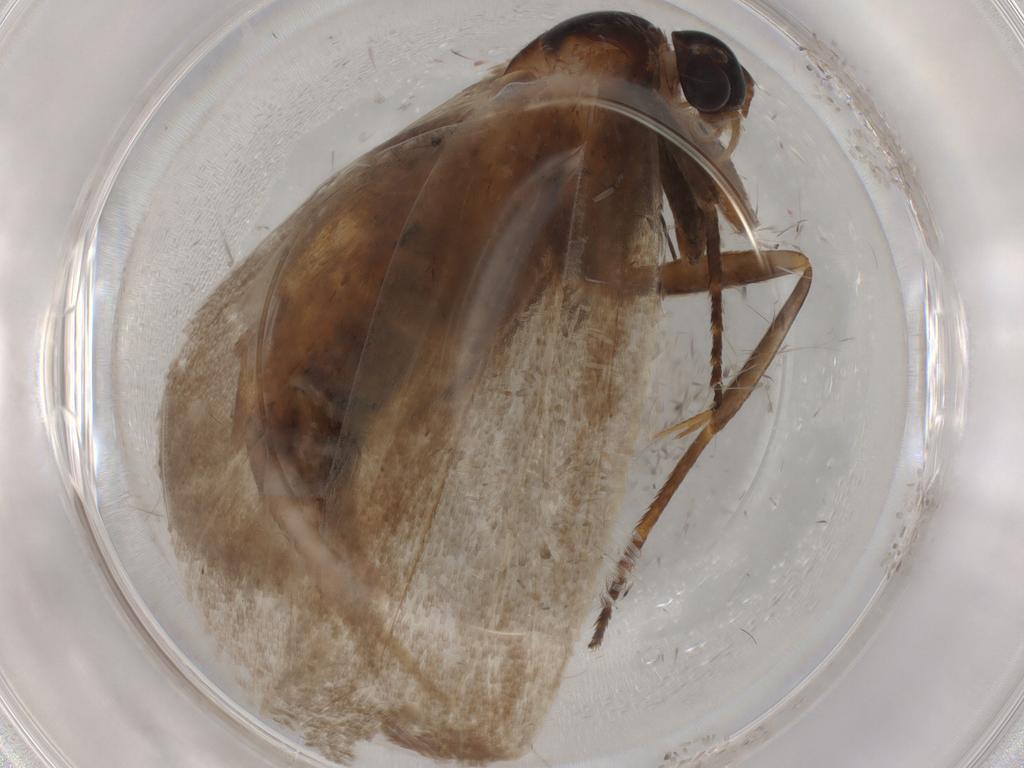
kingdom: Animalia
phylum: Arthropoda
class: Insecta
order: Lepidoptera
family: Oecophoridae
